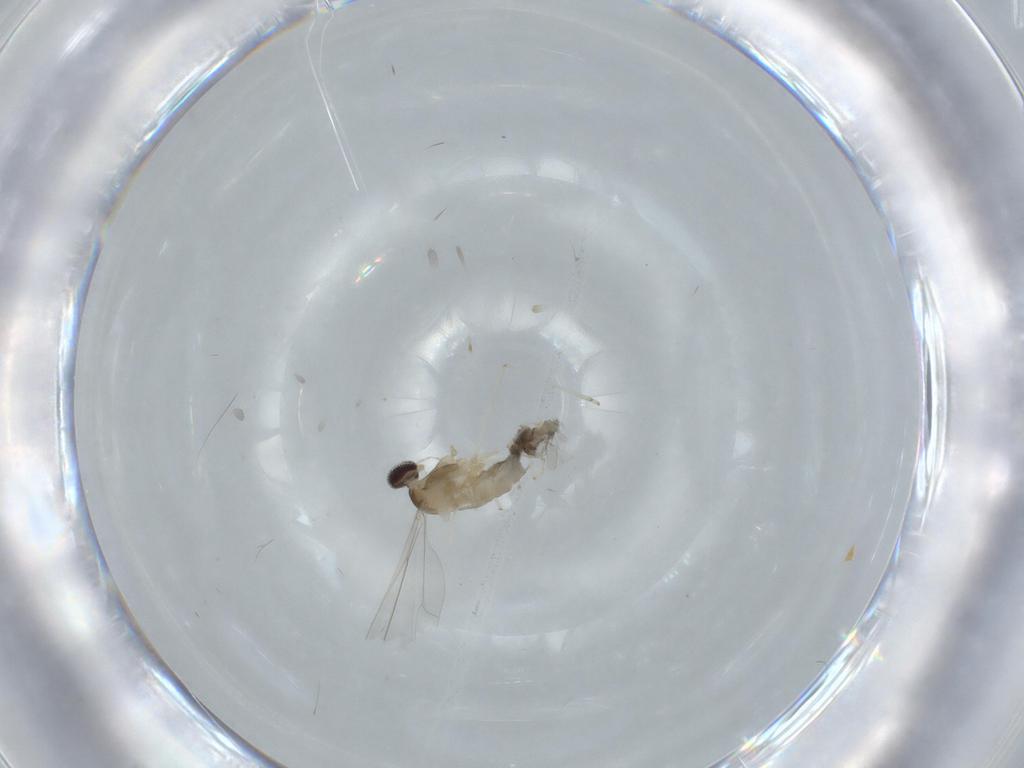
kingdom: Animalia
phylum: Arthropoda
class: Insecta
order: Diptera
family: Cecidomyiidae
